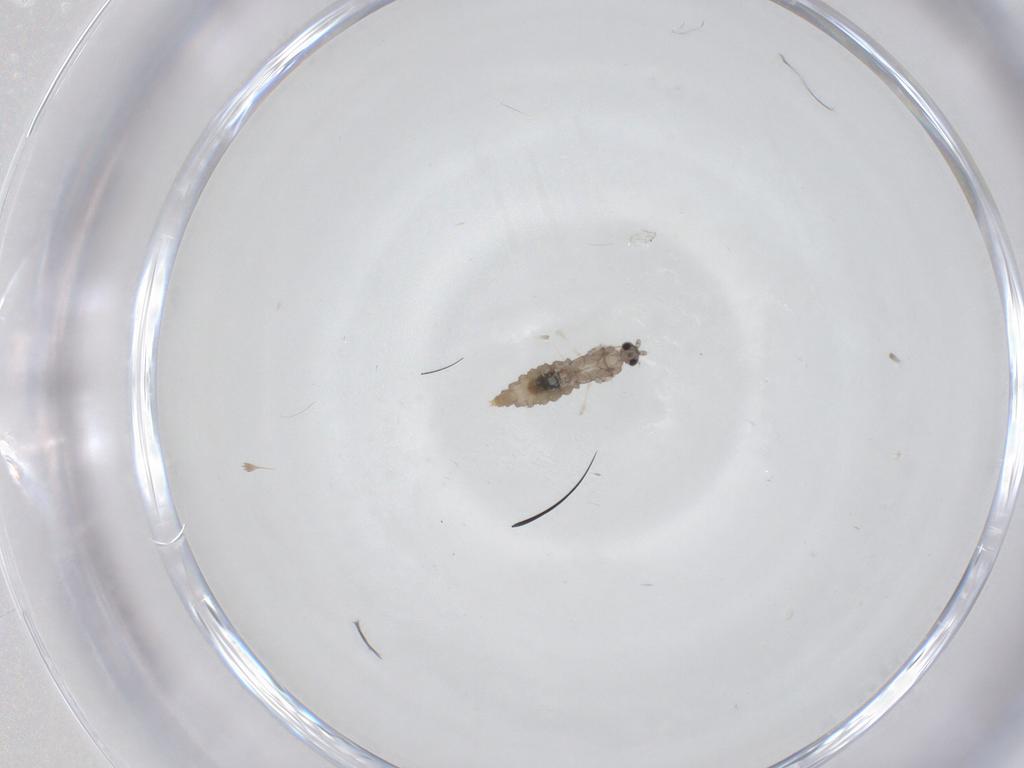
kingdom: Animalia
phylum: Arthropoda
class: Insecta
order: Diptera
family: Cecidomyiidae
